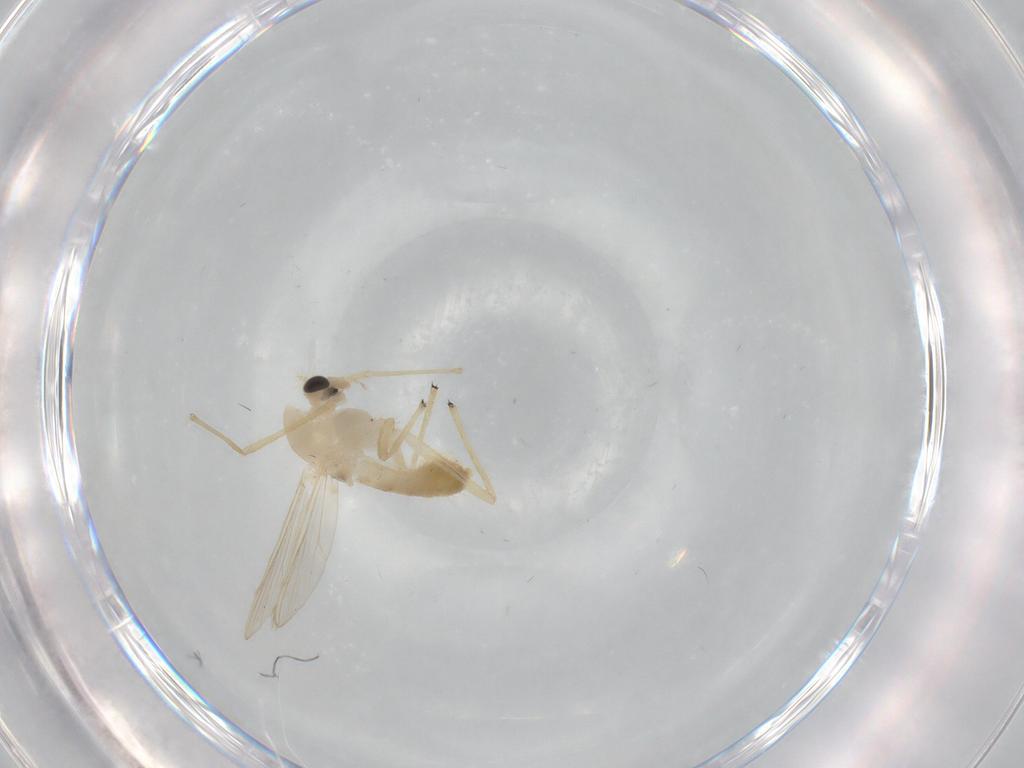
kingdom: Animalia
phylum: Arthropoda
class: Insecta
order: Diptera
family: Chironomidae
